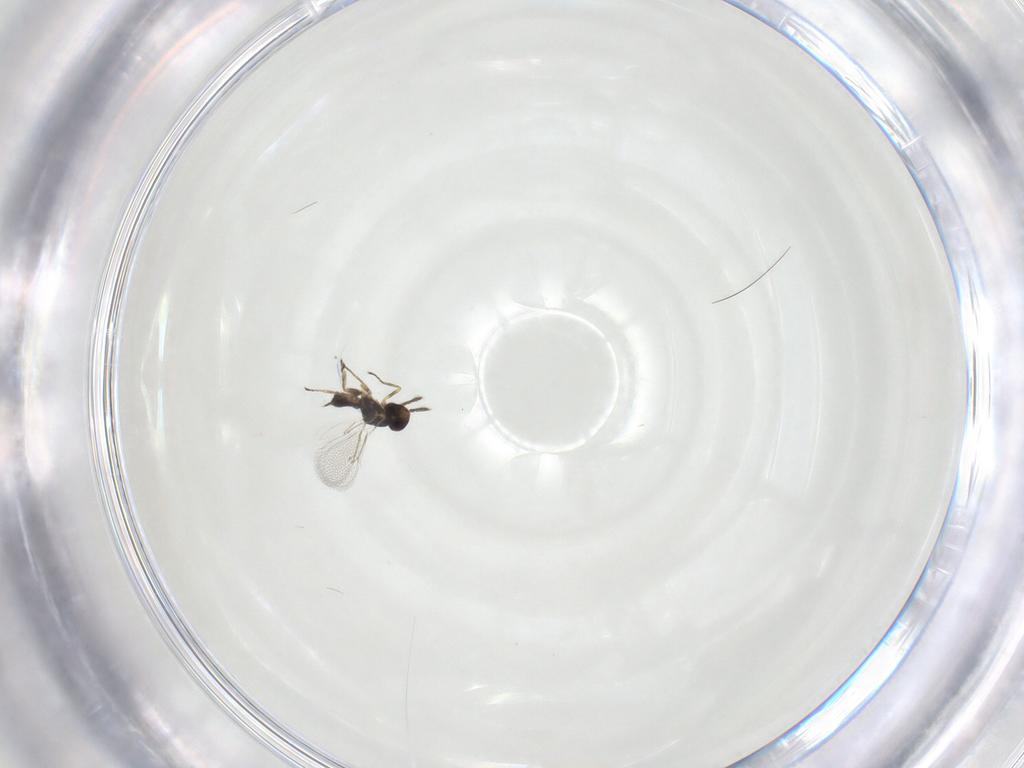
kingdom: Animalia
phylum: Arthropoda
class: Insecta
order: Hymenoptera
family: Eulophidae
